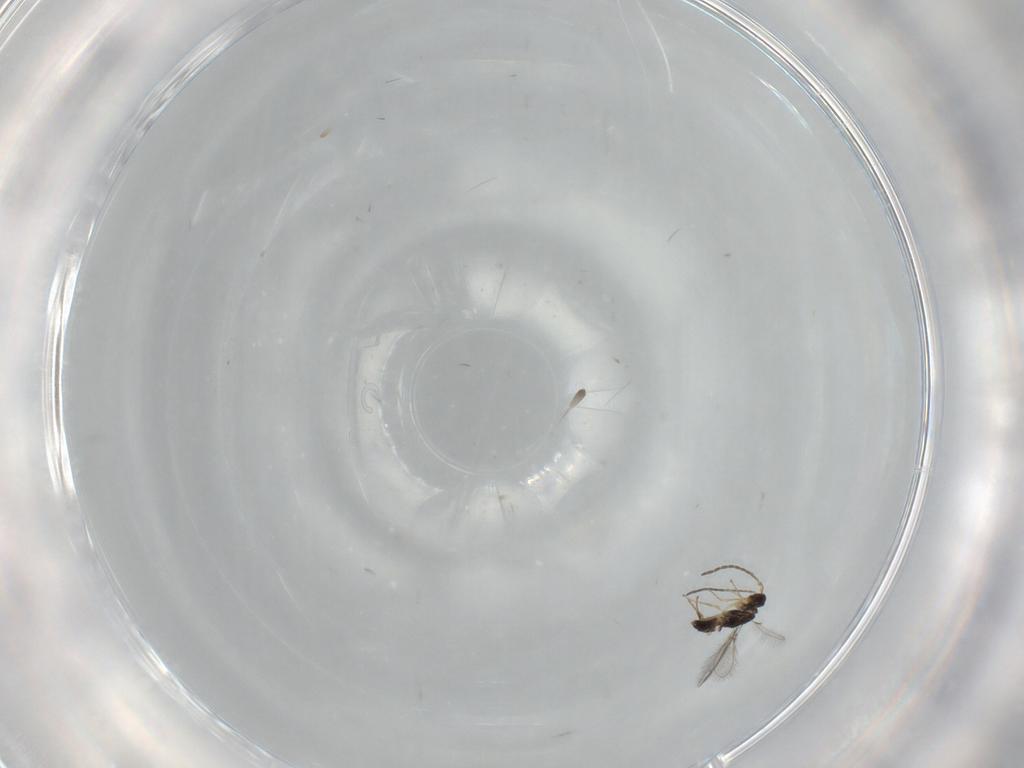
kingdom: Animalia
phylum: Arthropoda
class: Insecta
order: Hymenoptera
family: Mymaridae
